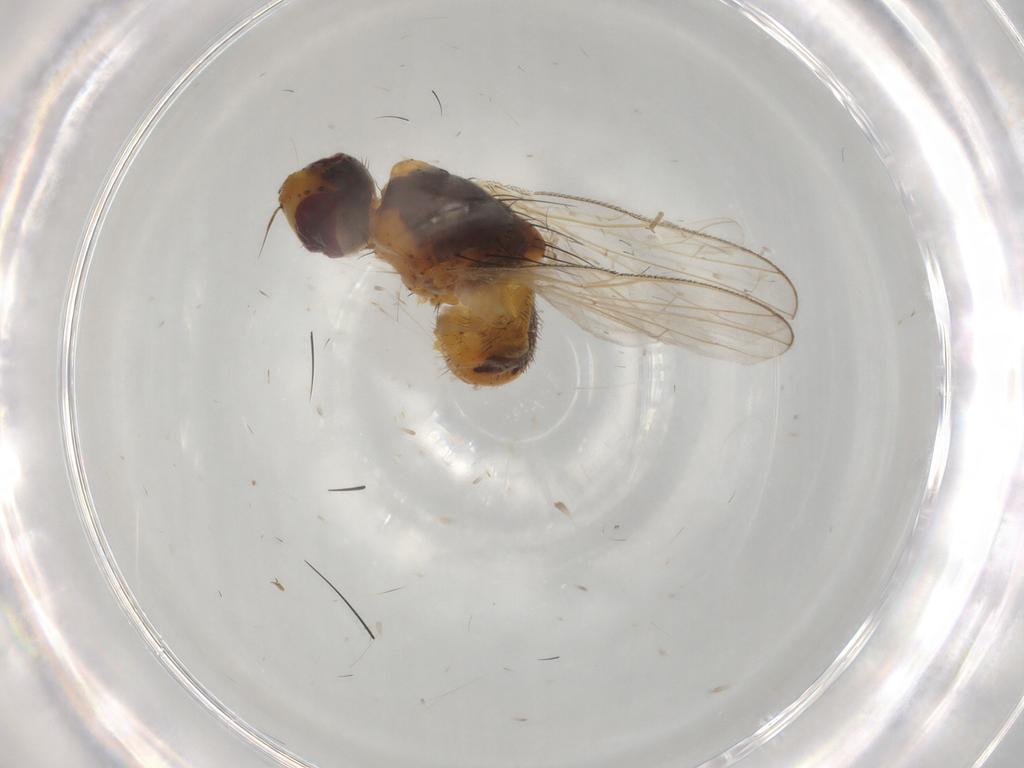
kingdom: Animalia
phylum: Arthropoda
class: Insecta
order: Diptera
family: Muscidae
